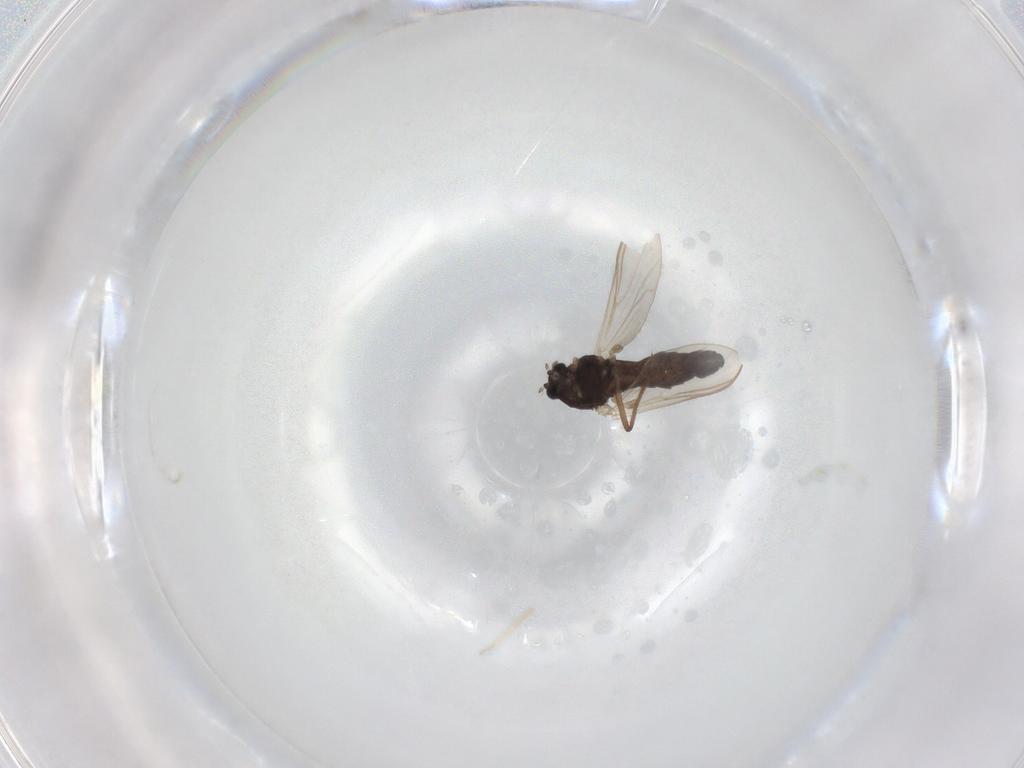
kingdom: Animalia
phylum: Arthropoda
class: Insecta
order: Diptera
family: Chironomidae
